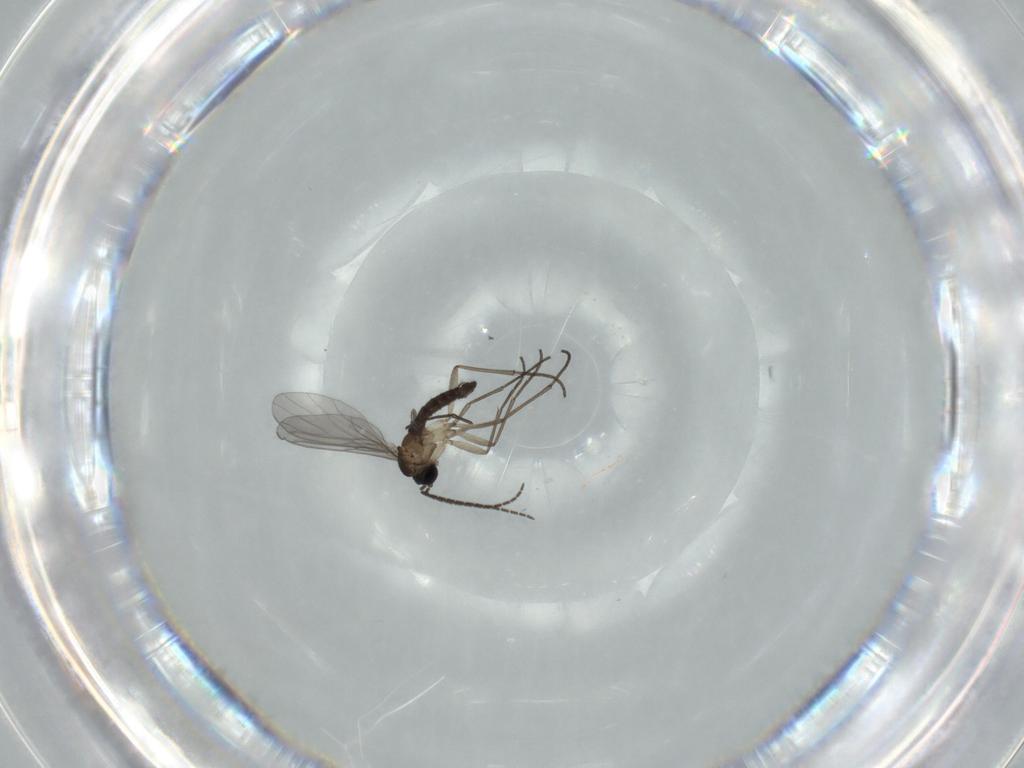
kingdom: Animalia
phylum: Arthropoda
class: Insecta
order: Diptera
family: Sciaridae
